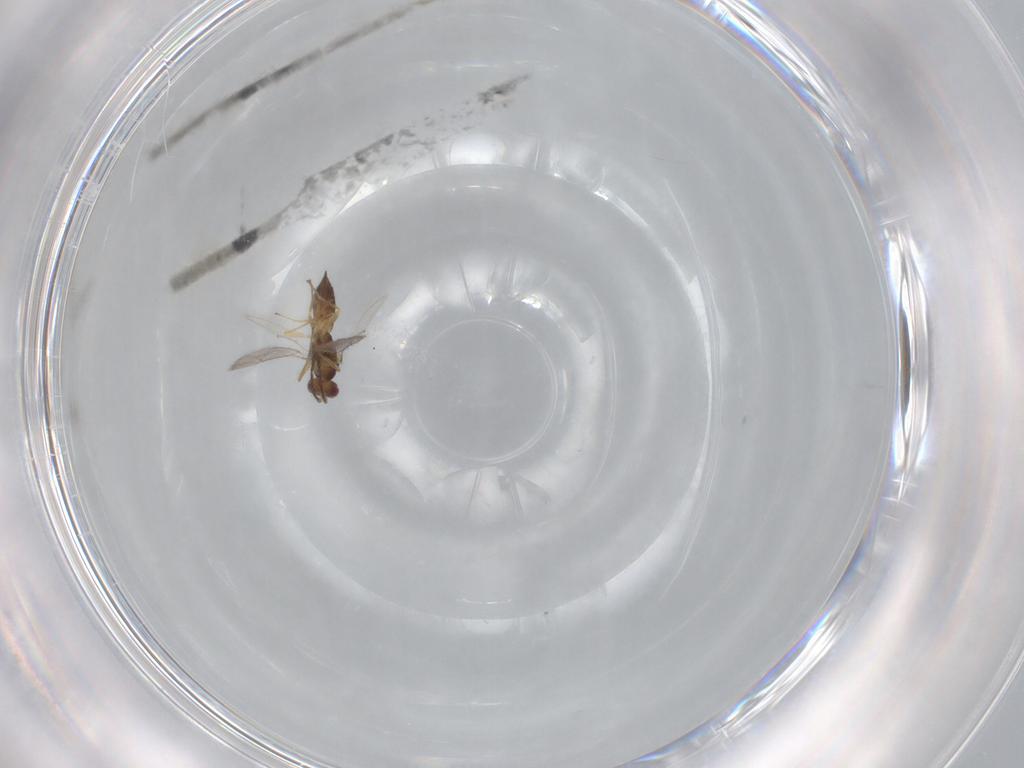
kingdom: Animalia
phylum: Arthropoda
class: Insecta
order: Hymenoptera
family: Eulophidae
